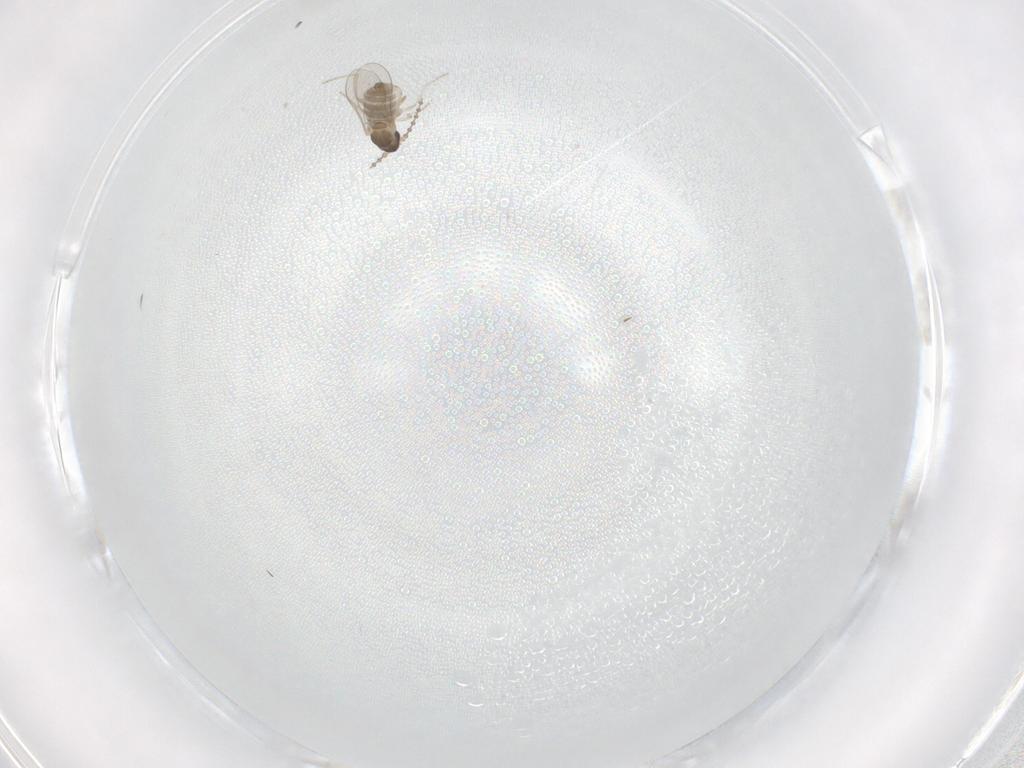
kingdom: Animalia
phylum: Arthropoda
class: Insecta
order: Diptera
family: Cecidomyiidae
